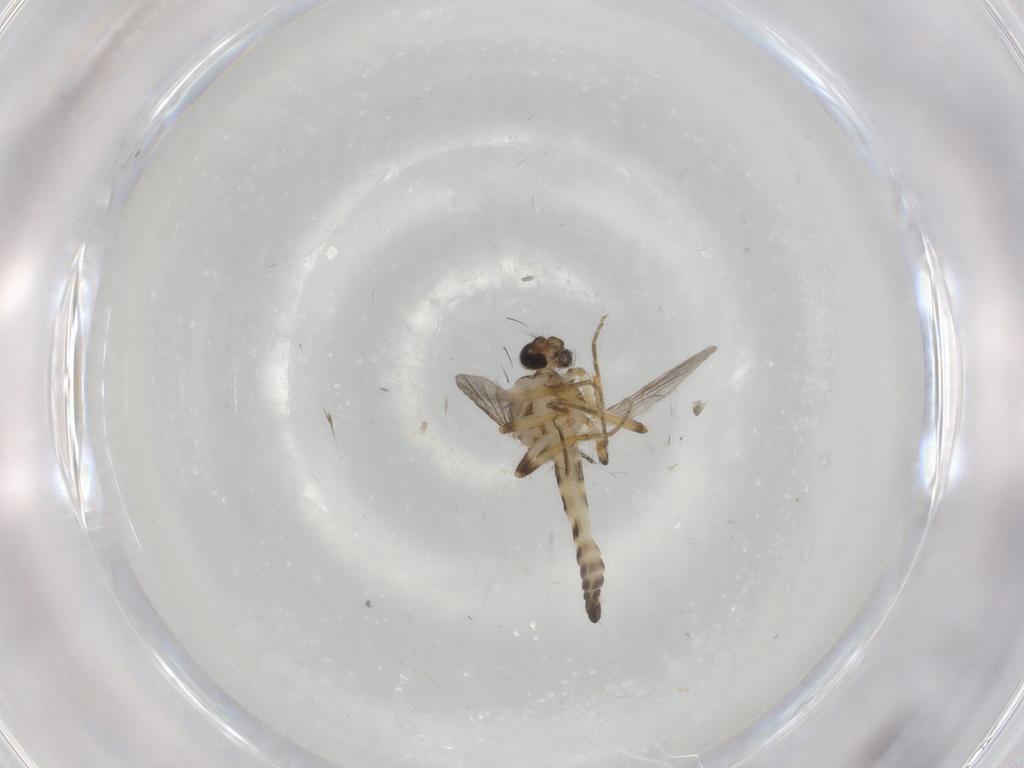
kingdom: Animalia
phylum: Arthropoda
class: Insecta
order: Diptera
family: Ceratopogonidae
